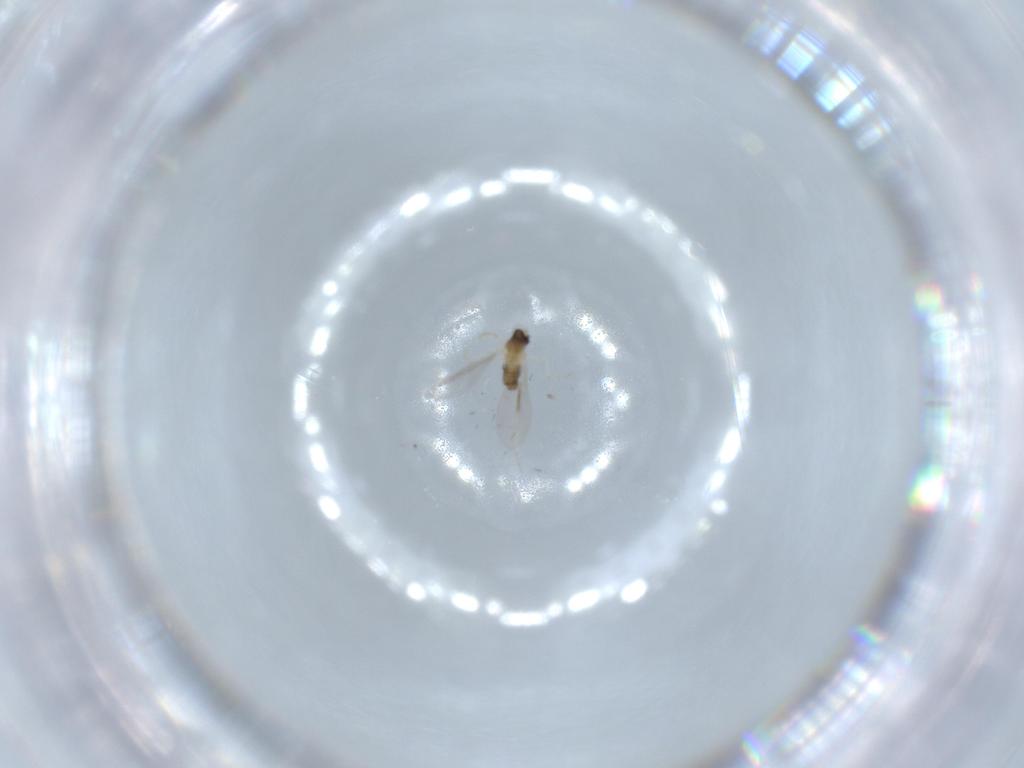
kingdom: Animalia
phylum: Arthropoda
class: Insecta
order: Diptera
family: Cecidomyiidae
